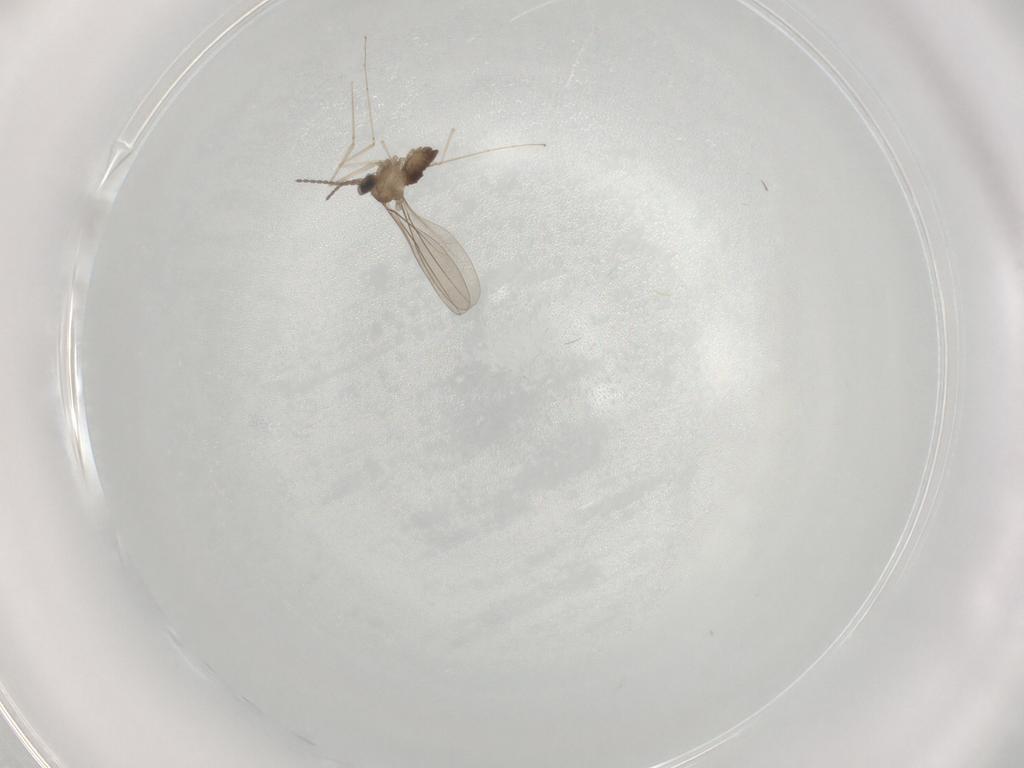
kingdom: Animalia
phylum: Arthropoda
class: Insecta
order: Diptera
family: Cecidomyiidae
